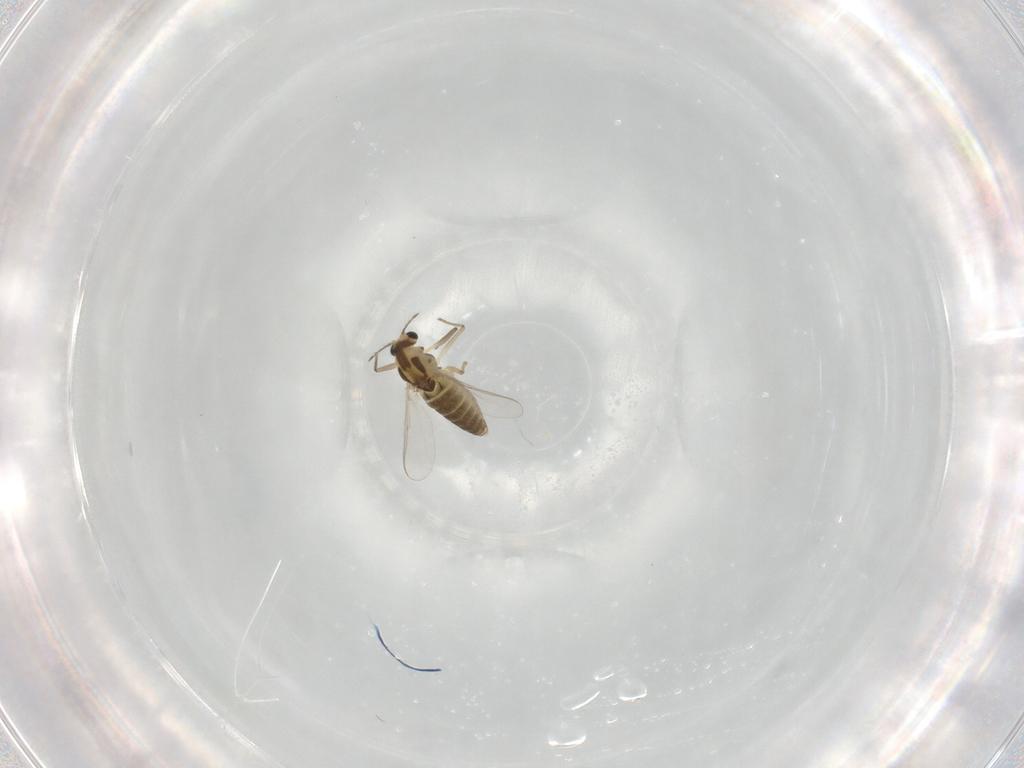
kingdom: Animalia
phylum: Arthropoda
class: Insecta
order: Diptera
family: Chironomidae
